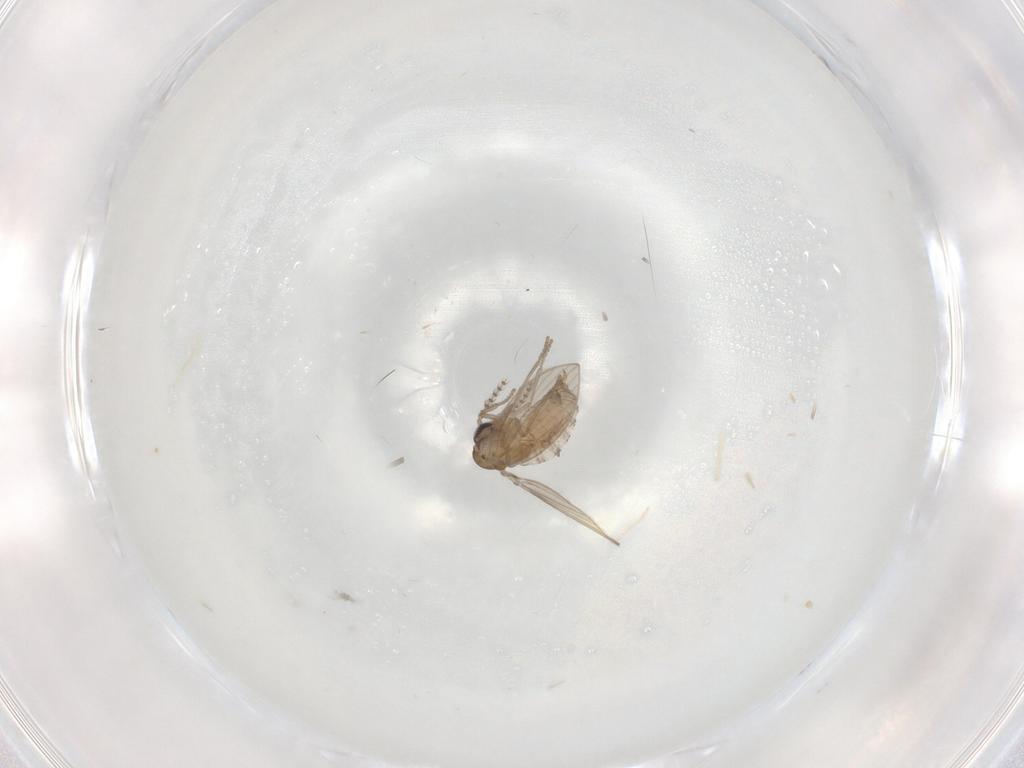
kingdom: Animalia
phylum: Arthropoda
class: Insecta
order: Diptera
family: Psychodidae
